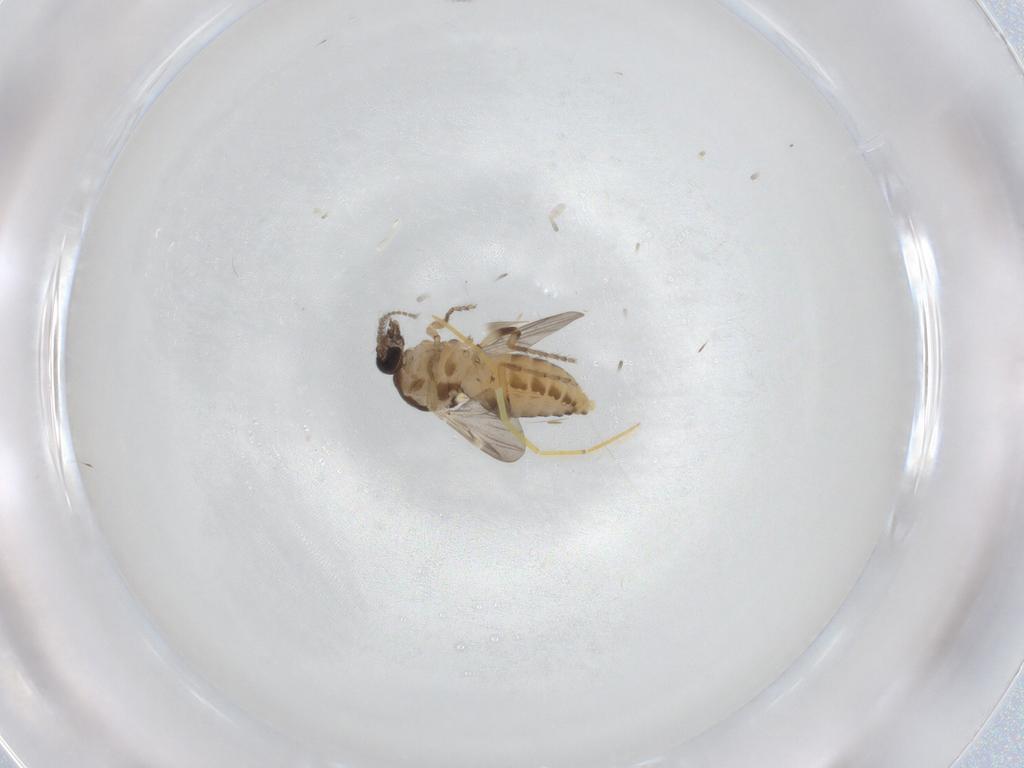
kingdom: Animalia
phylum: Arthropoda
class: Insecta
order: Diptera
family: Ceratopogonidae
